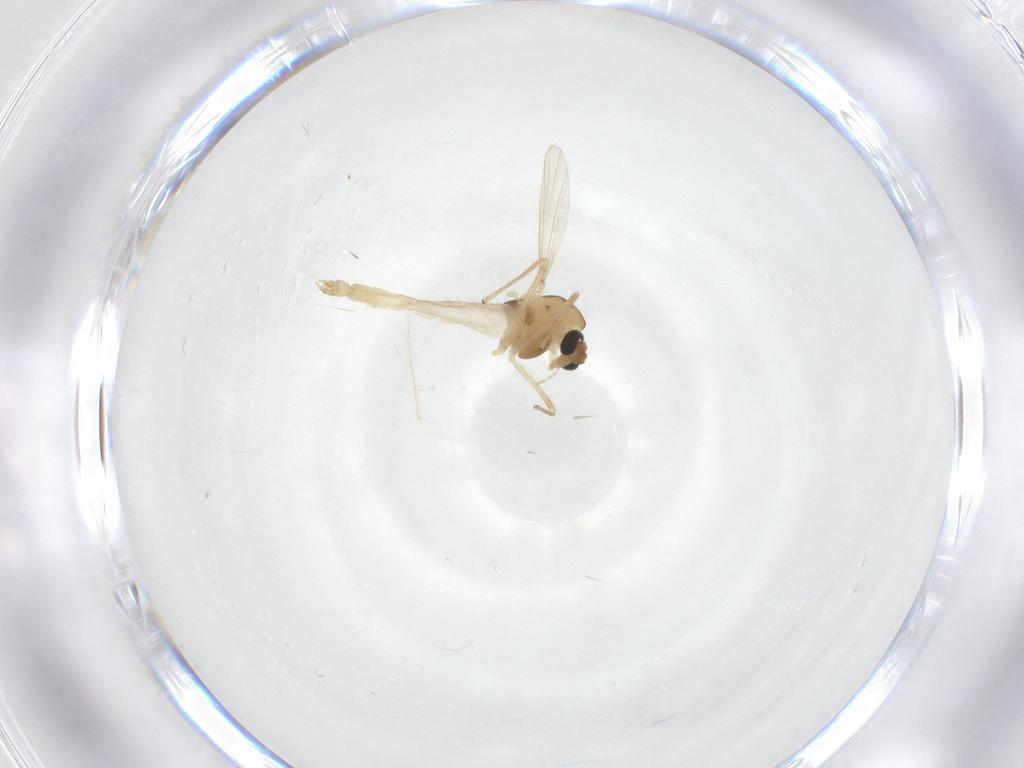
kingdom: Animalia
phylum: Arthropoda
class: Insecta
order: Diptera
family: Chironomidae
